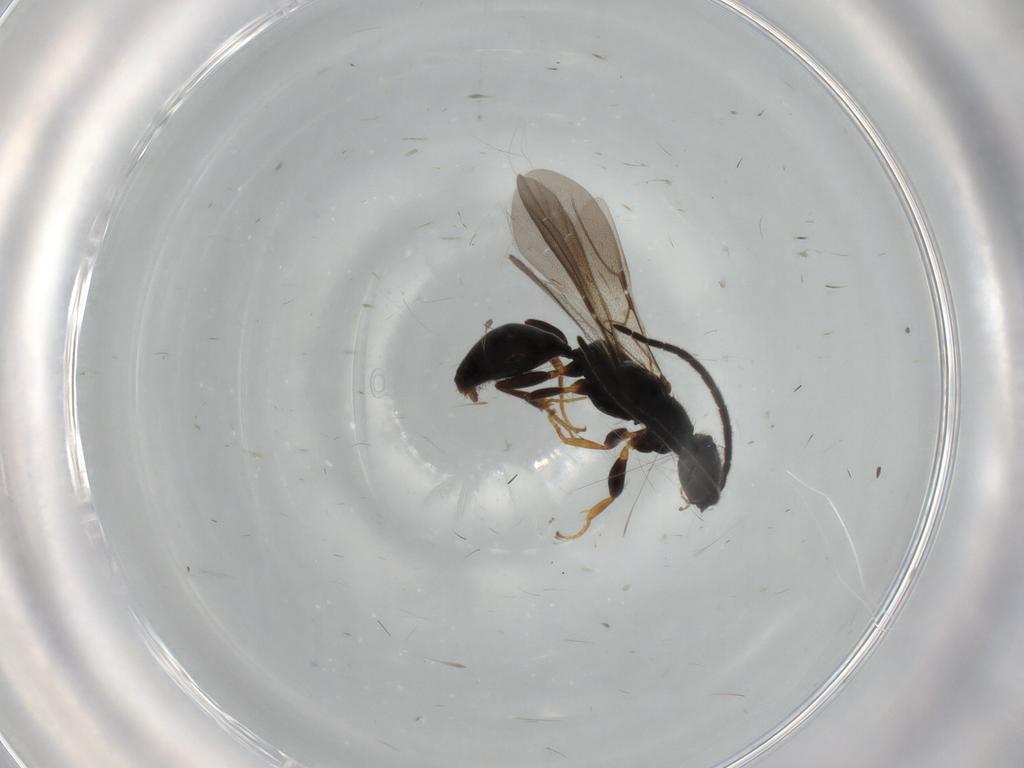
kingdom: Animalia
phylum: Arthropoda
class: Insecta
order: Hymenoptera
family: Bethylidae
